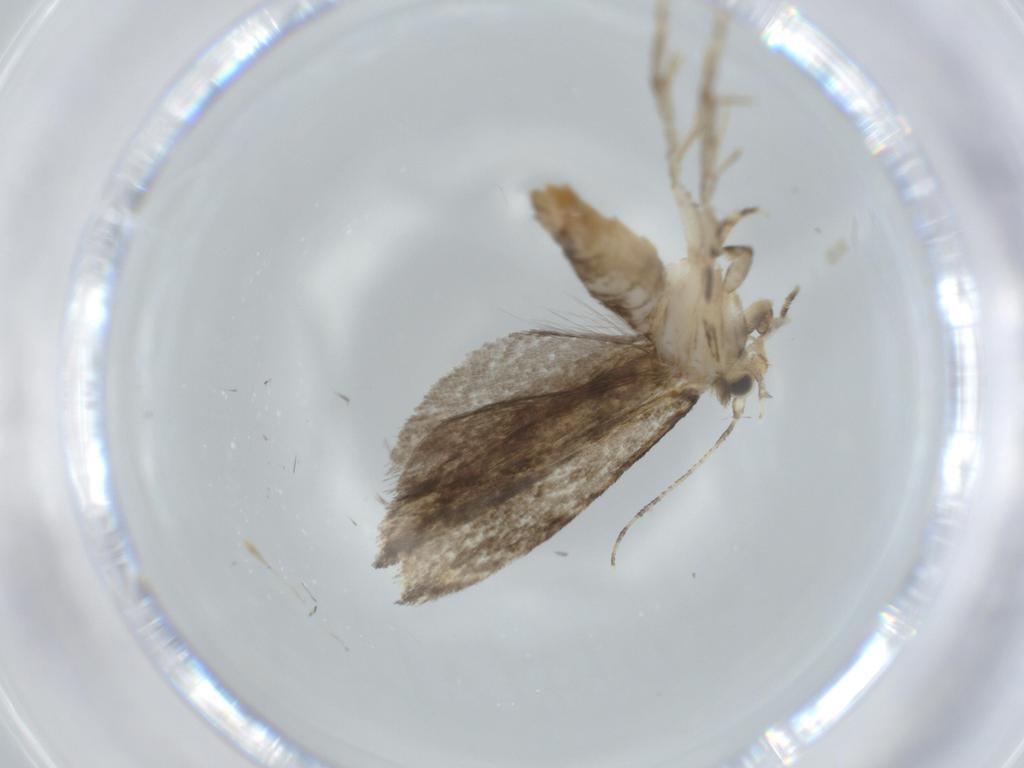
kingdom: Animalia
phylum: Arthropoda
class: Insecta
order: Lepidoptera
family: Tineidae
